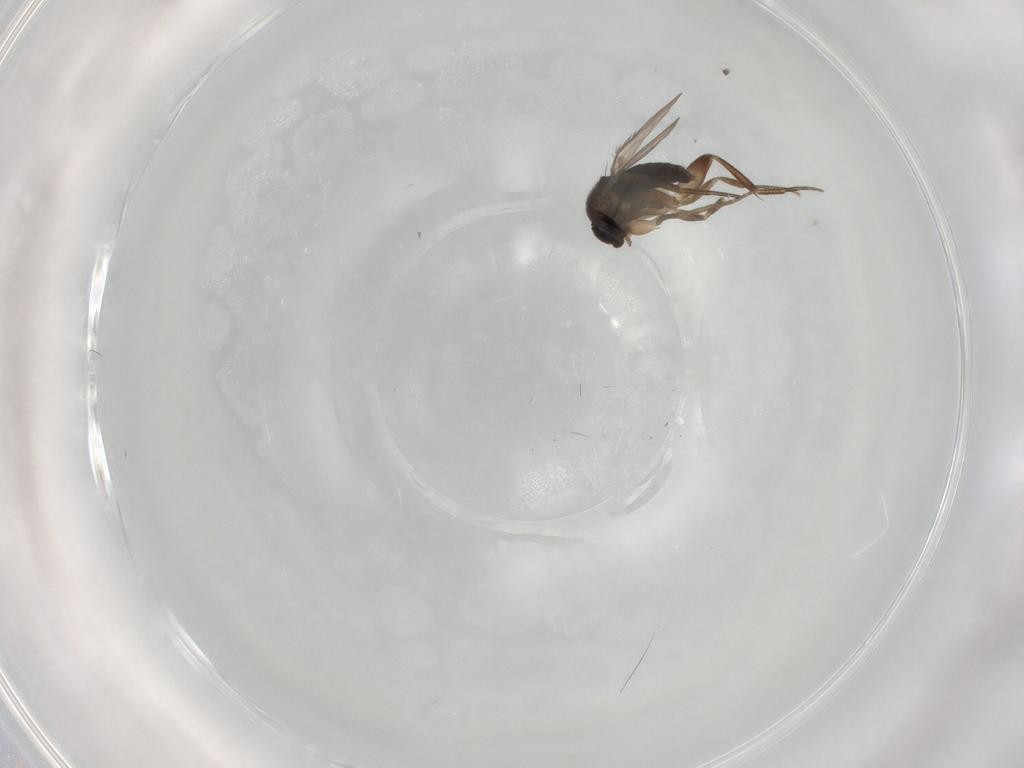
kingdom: Animalia
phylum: Arthropoda
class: Insecta
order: Diptera
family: Phoridae
